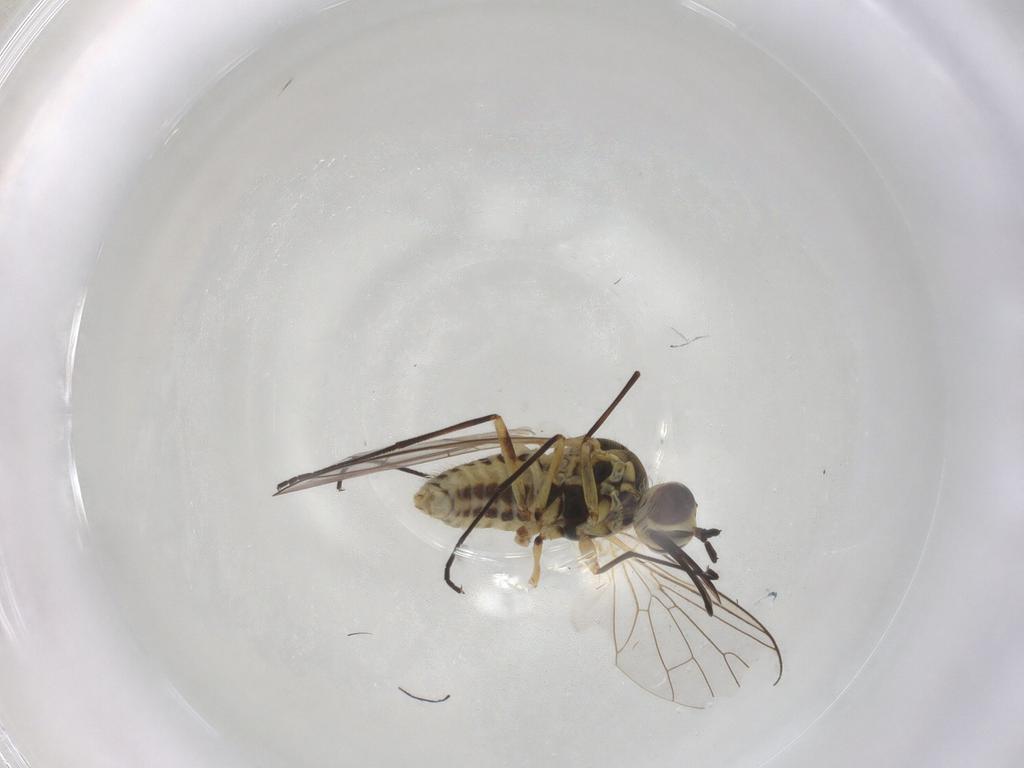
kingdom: Animalia
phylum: Arthropoda
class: Insecta
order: Diptera
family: Bombyliidae
